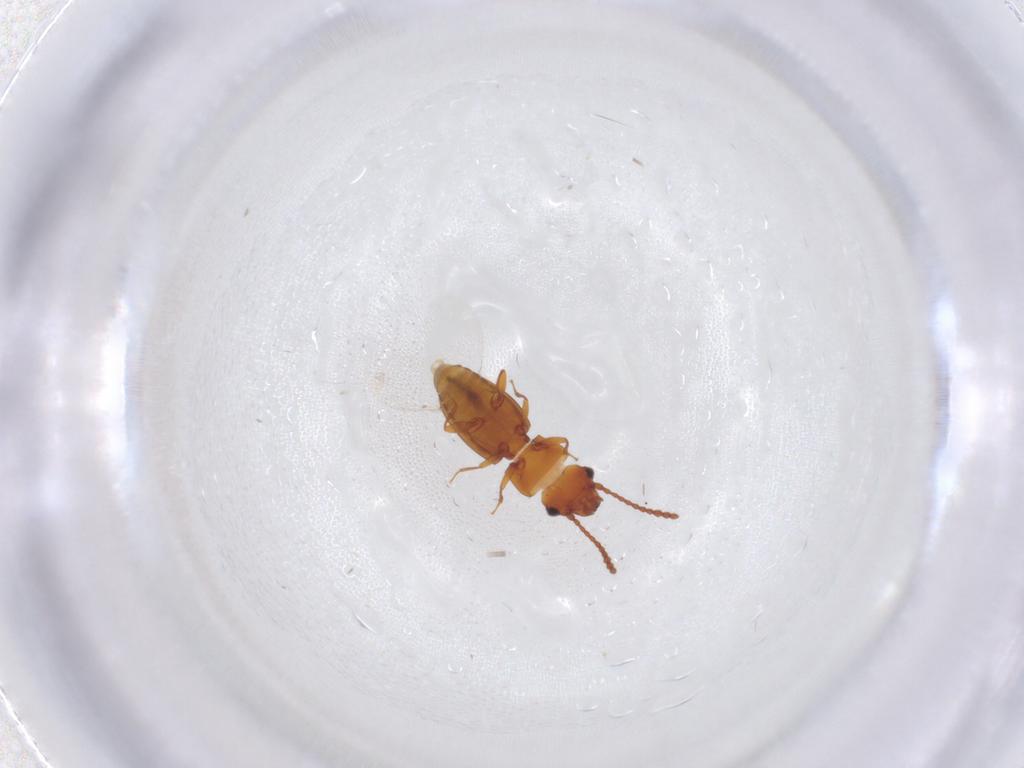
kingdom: Animalia
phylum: Arthropoda
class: Insecta
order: Coleoptera
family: Laemophloeidae
